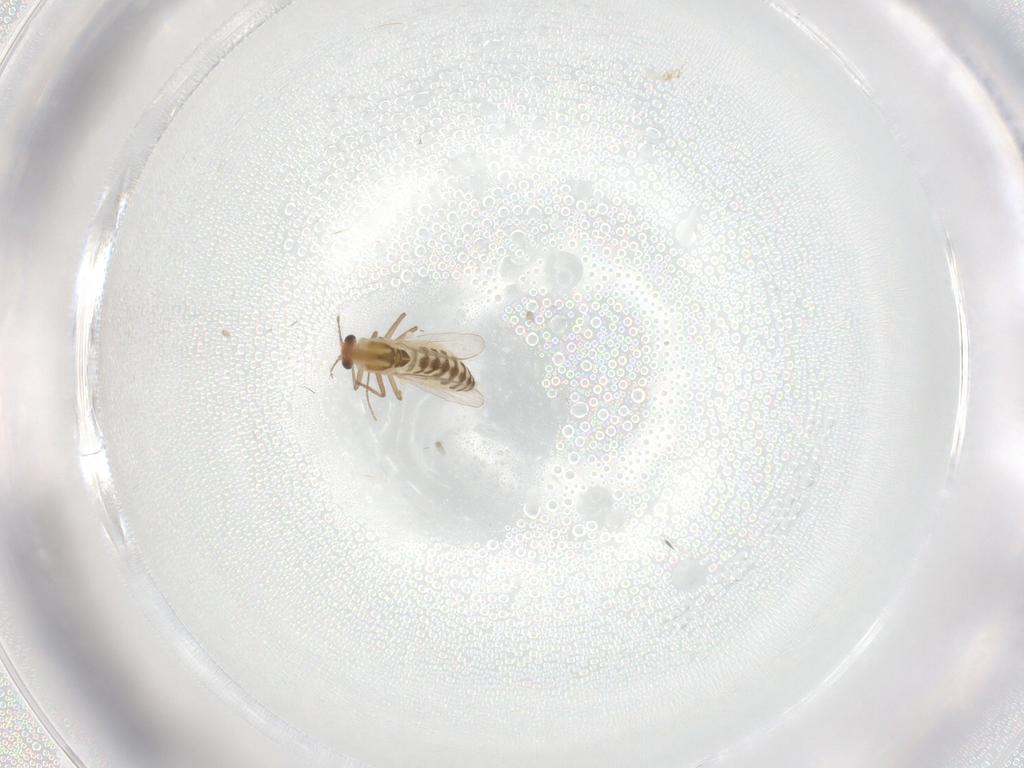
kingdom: Animalia
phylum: Arthropoda
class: Insecta
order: Diptera
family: Chironomidae
